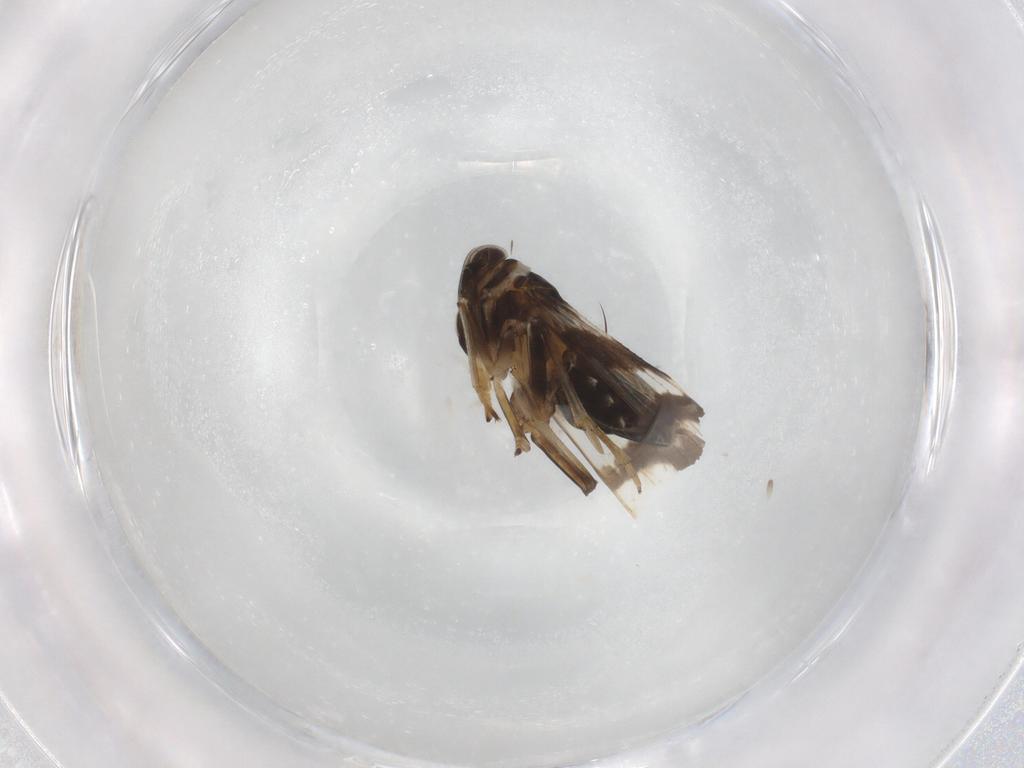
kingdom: Animalia
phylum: Arthropoda
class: Insecta
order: Hemiptera
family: Delphacidae
